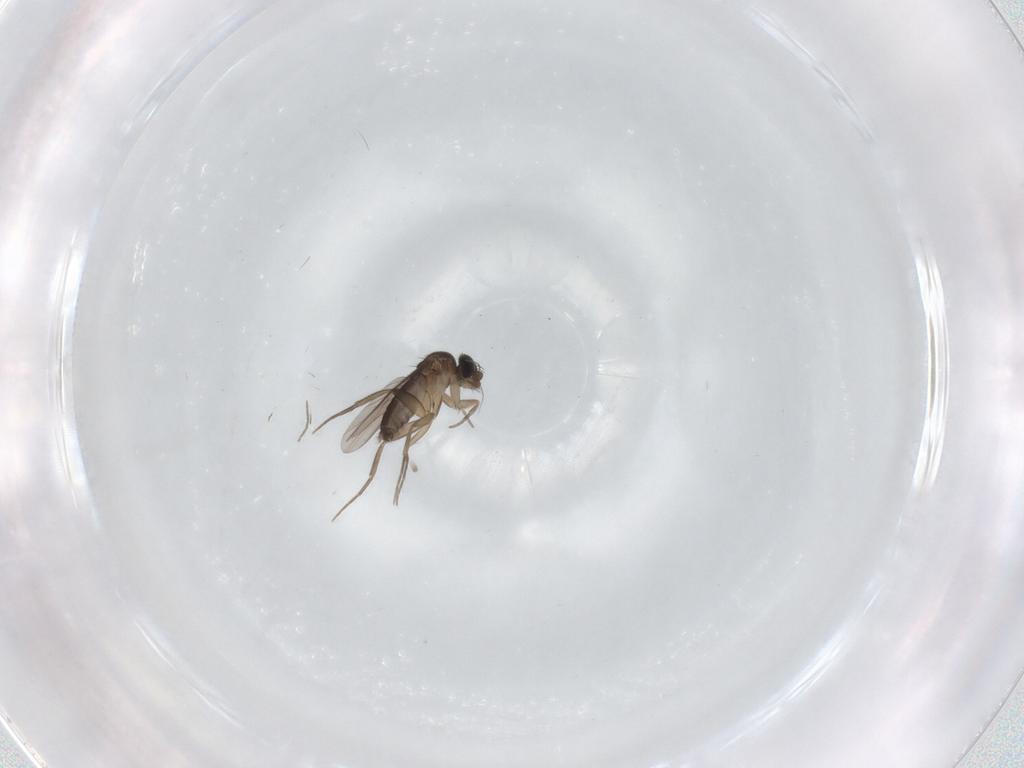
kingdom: Animalia
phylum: Arthropoda
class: Insecta
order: Diptera
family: Phoridae
